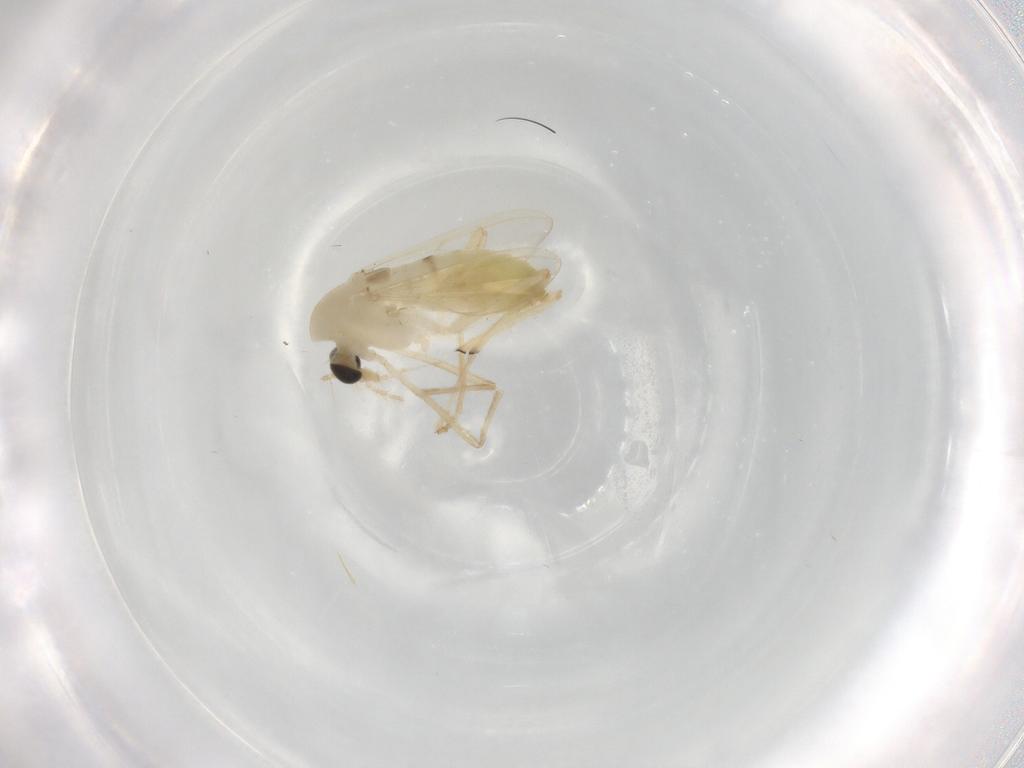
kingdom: Animalia
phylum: Arthropoda
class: Insecta
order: Diptera
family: Chironomidae
